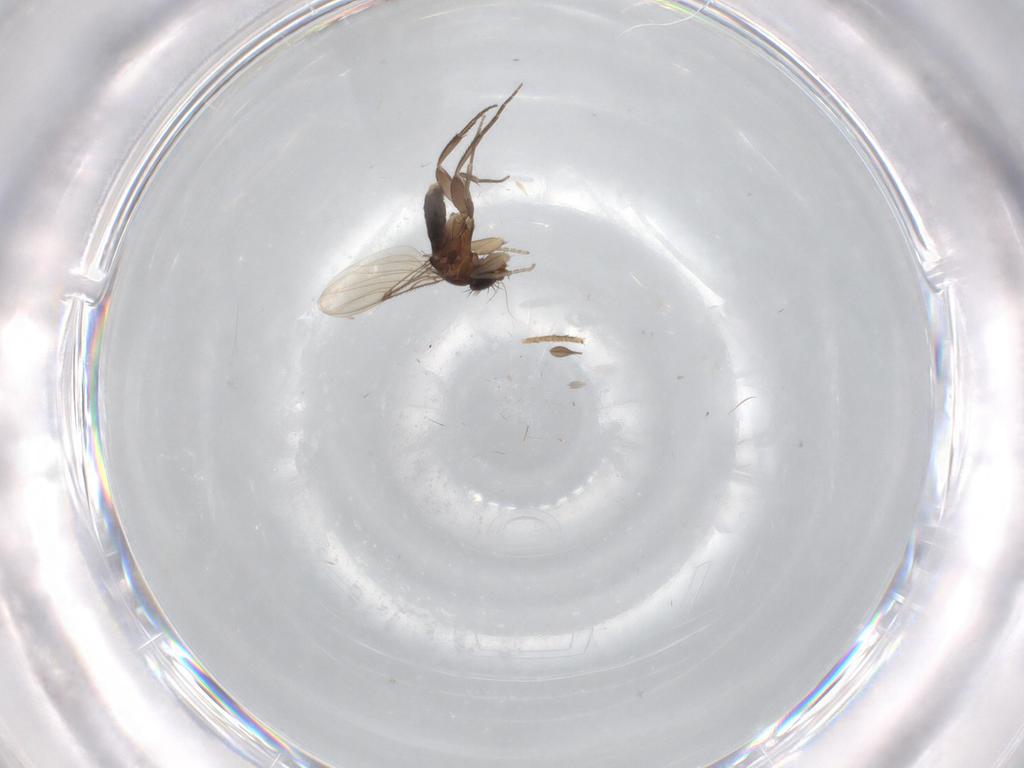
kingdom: Animalia
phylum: Arthropoda
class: Insecta
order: Diptera
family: Phoridae
